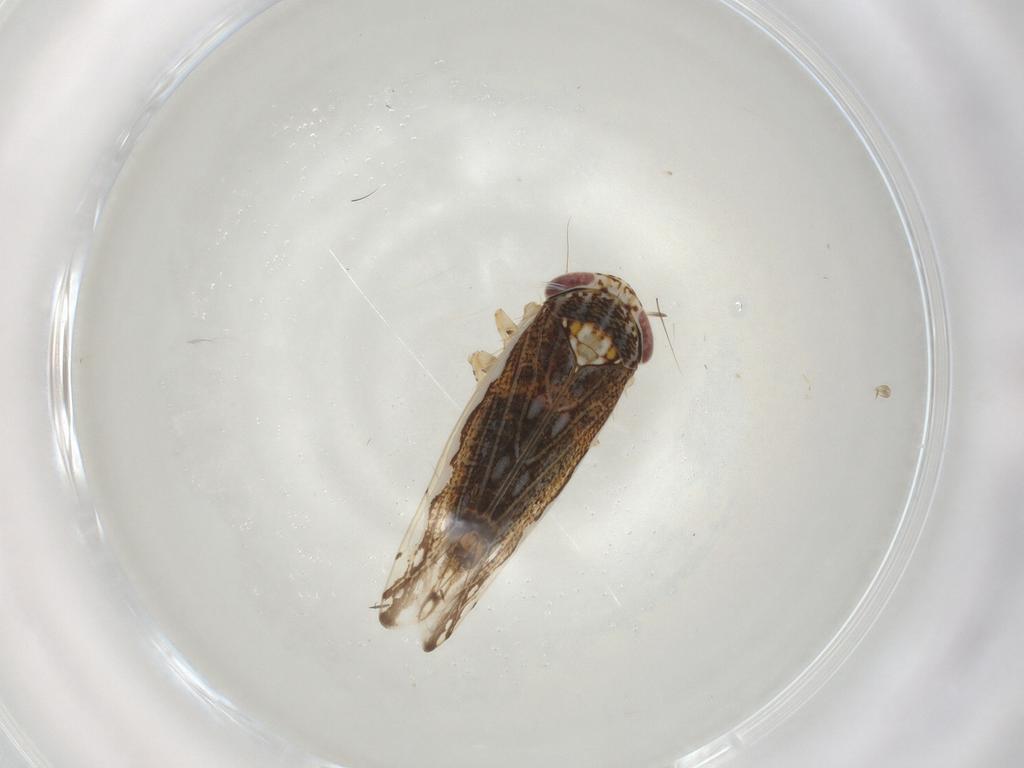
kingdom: Animalia
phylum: Arthropoda
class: Insecta
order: Hemiptera
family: Cicadellidae
